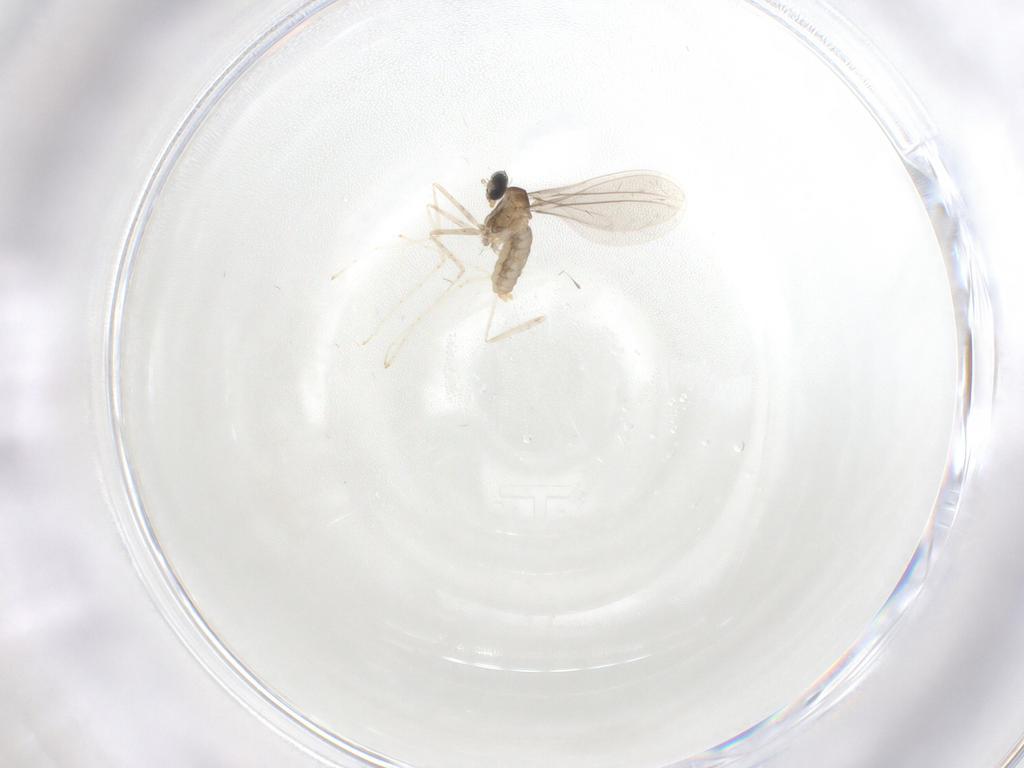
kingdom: Animalia
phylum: Arthropoda
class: Insecta
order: Diptera
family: Cecidomyiidae
